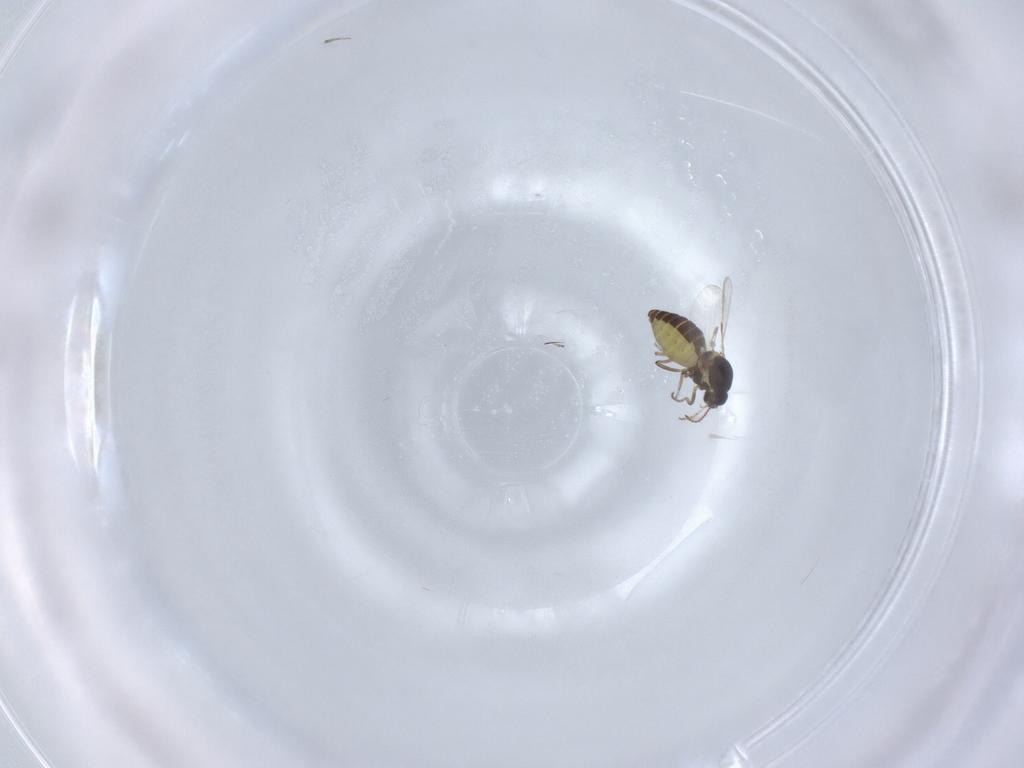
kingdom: Animalia
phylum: Arthropoda
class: Insecta
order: Diptera
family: Ceratopogonidae
